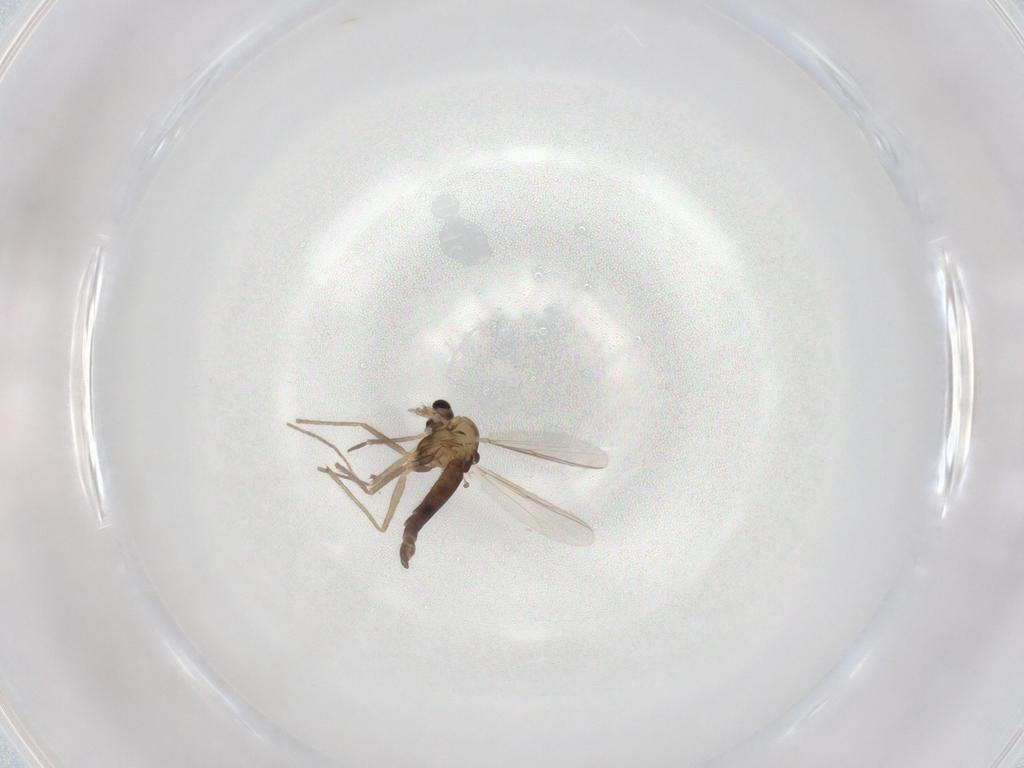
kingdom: Animalia
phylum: Arthropoda
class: Insecta
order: Diptera
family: Chironomidae
